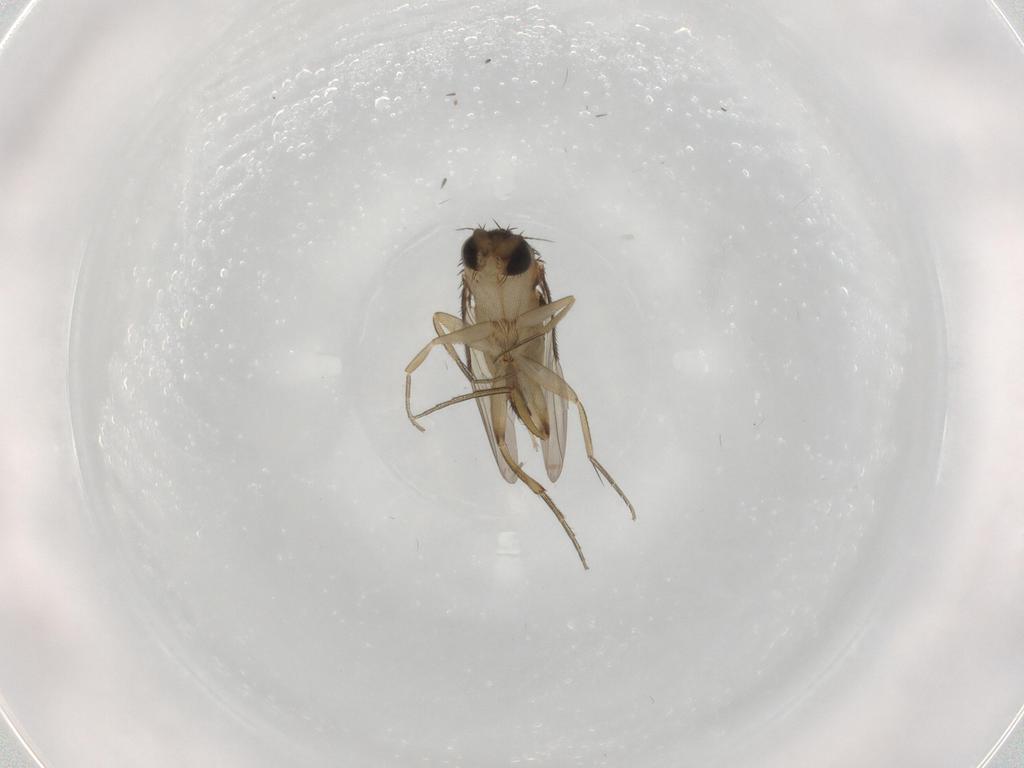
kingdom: Animalia
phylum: Arthropoda
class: Insecta
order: Diptera
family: Phoridae
